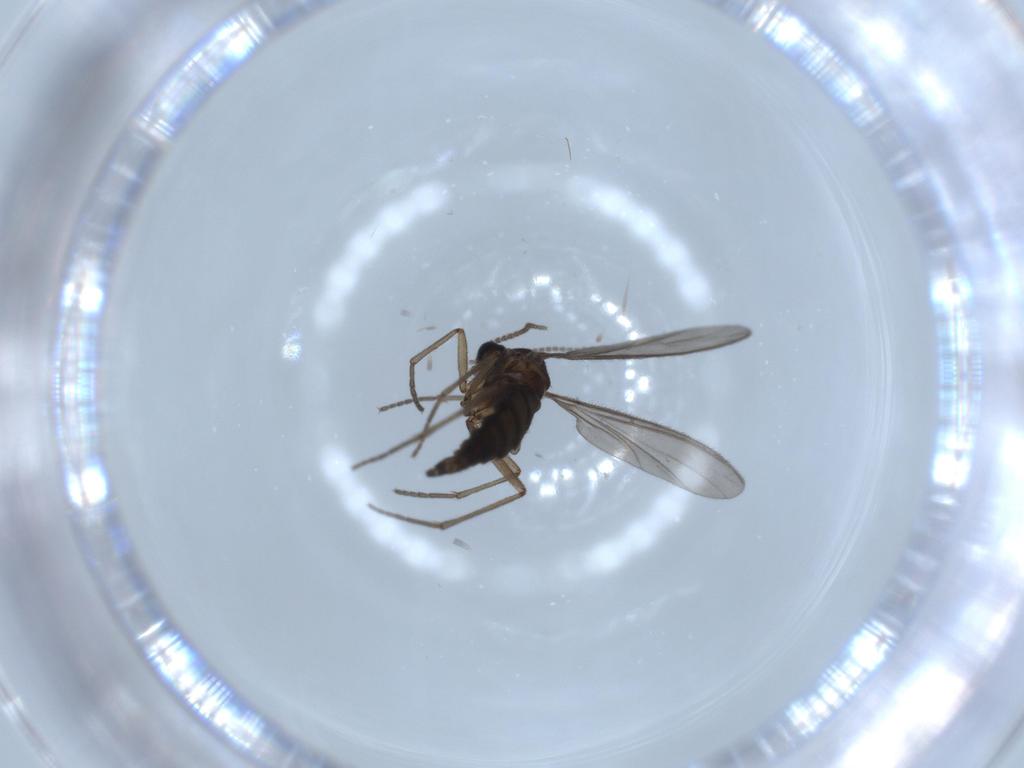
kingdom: Animalia
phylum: Arthropoda
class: Insecta
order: Diptera
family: Sciaridae
